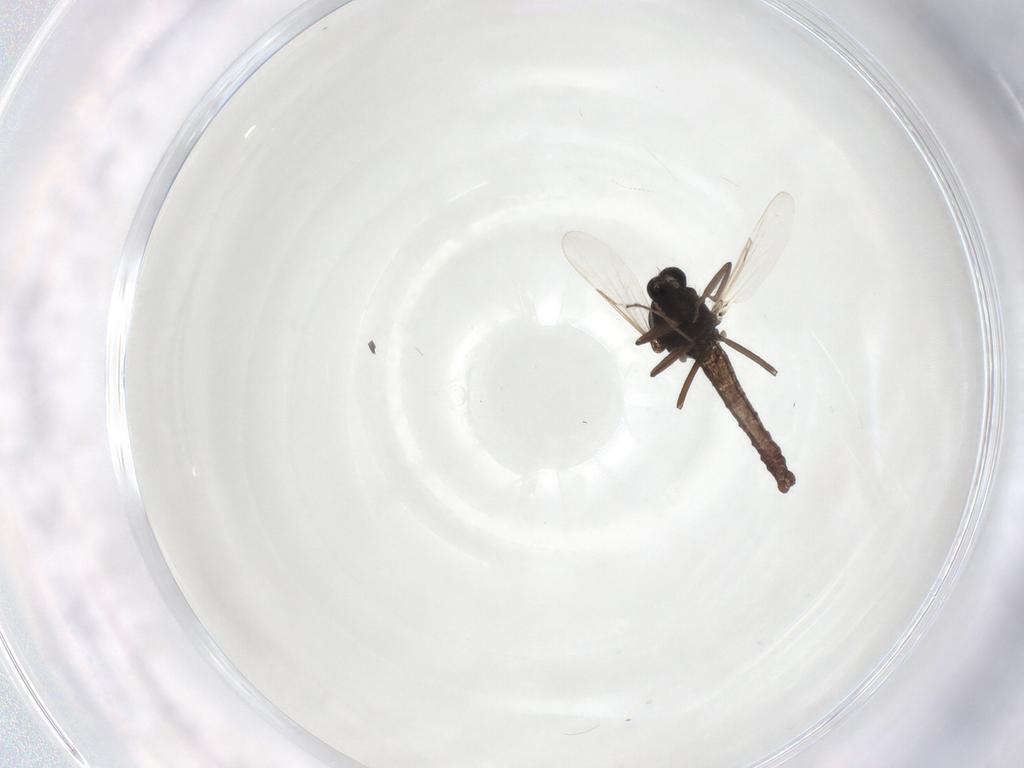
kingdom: Animalia
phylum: Arthropoda
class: Insecta
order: Diptera
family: Ceratopogonidae
